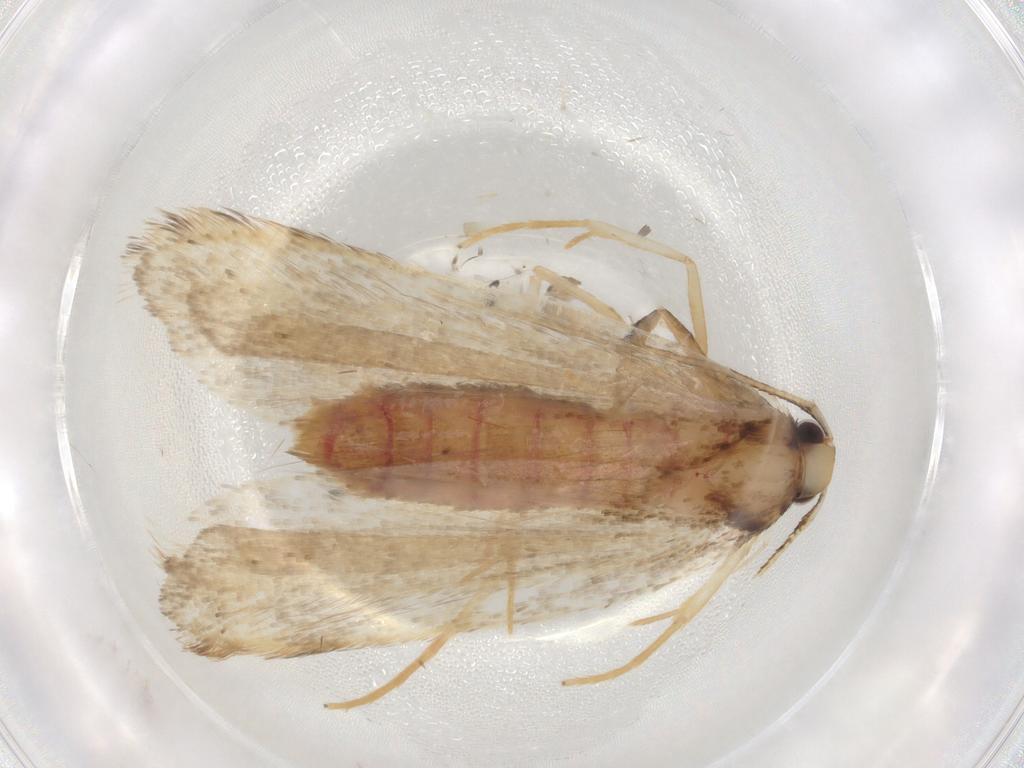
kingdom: Animalia
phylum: Arthropoda
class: Insecta
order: Lepidoptera
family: Lecithoceridae
